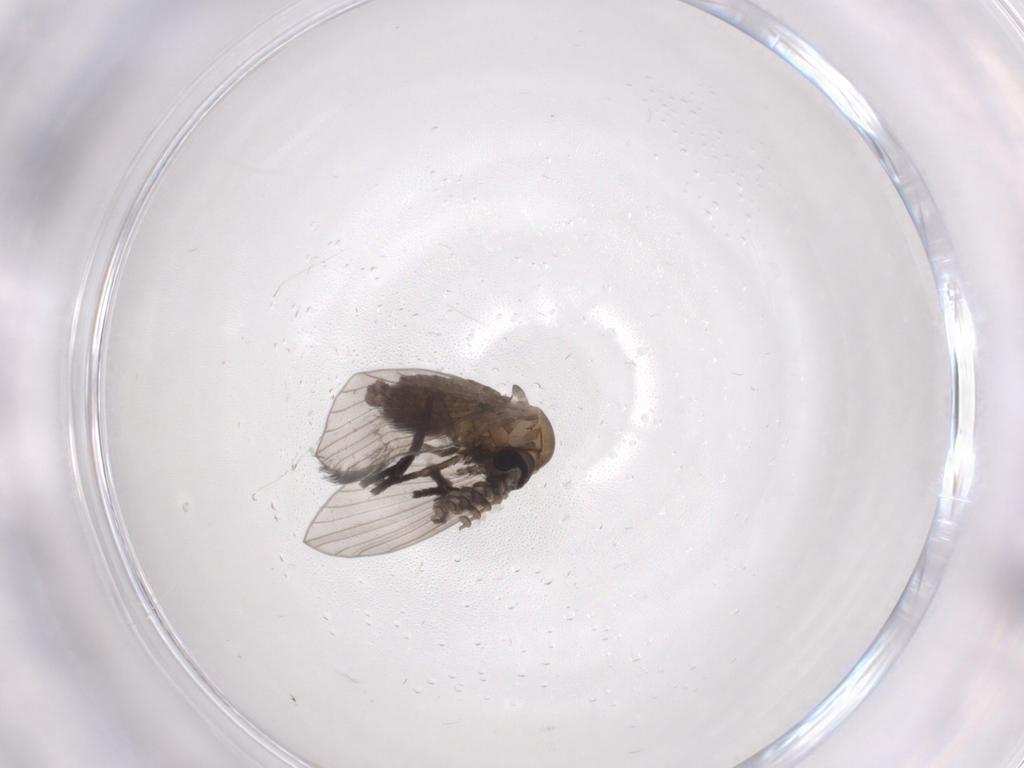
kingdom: Animalia
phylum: Arthropoda
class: Insecta
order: Diptera
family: Psychodidae
